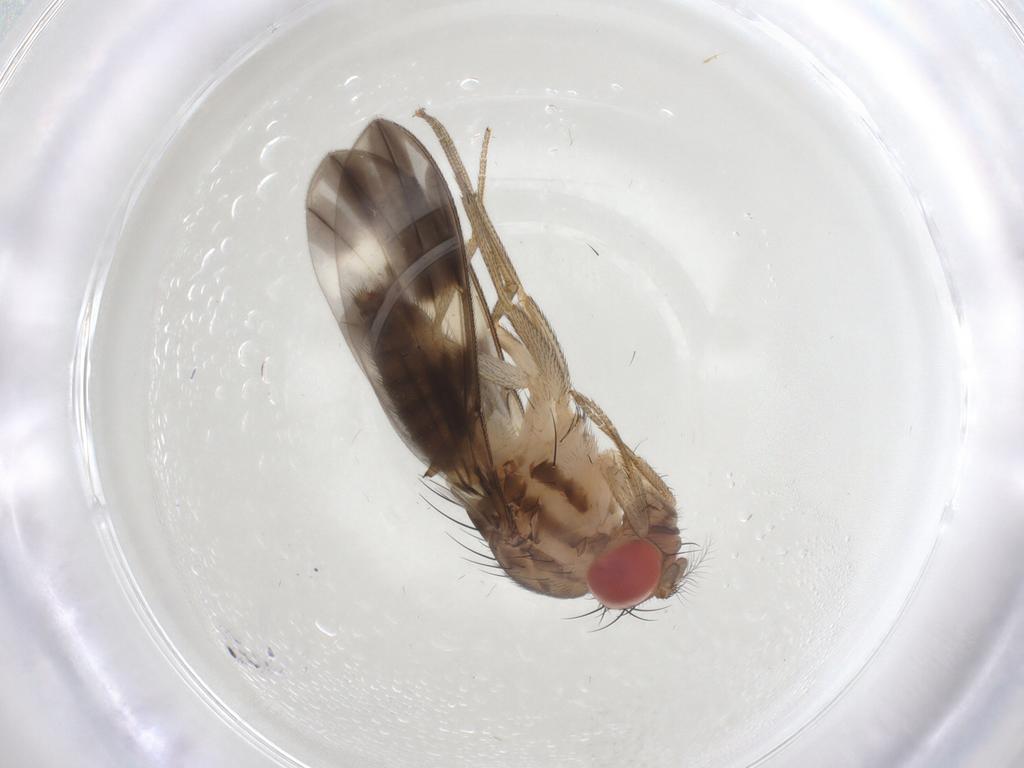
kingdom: Animalia
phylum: Arthropoda
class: Insecta
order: Diptera
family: Drosophilidae
